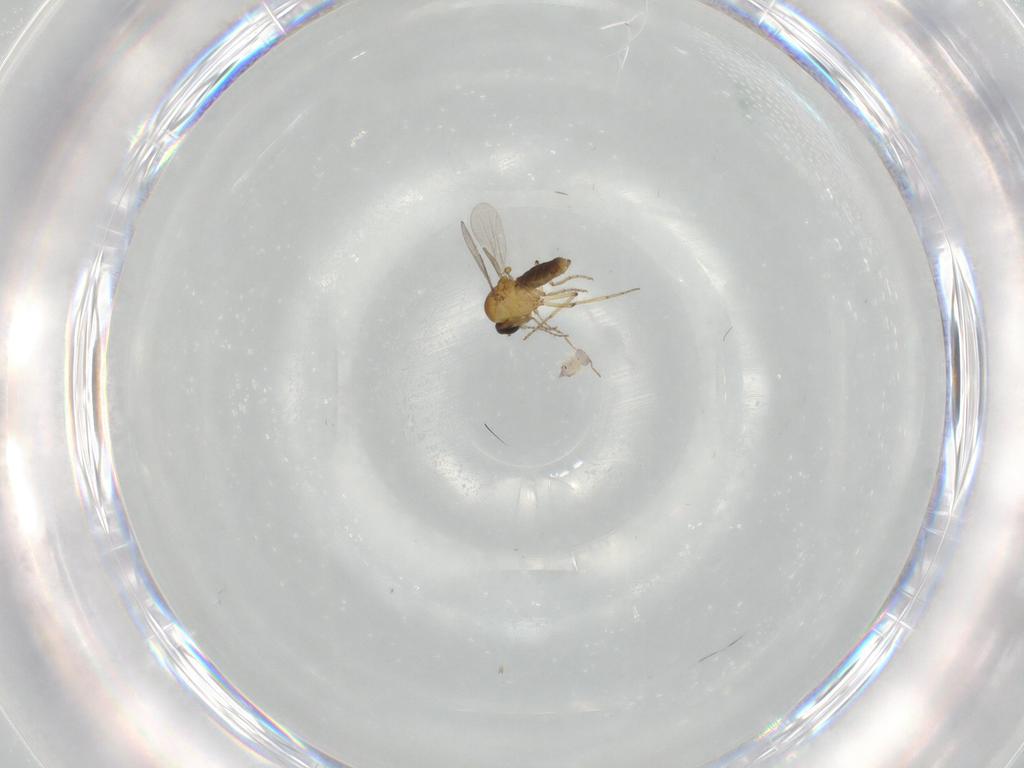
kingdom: Animalia
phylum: Arthropoda
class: Insecta
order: Diptera
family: Ceratopogonidae
